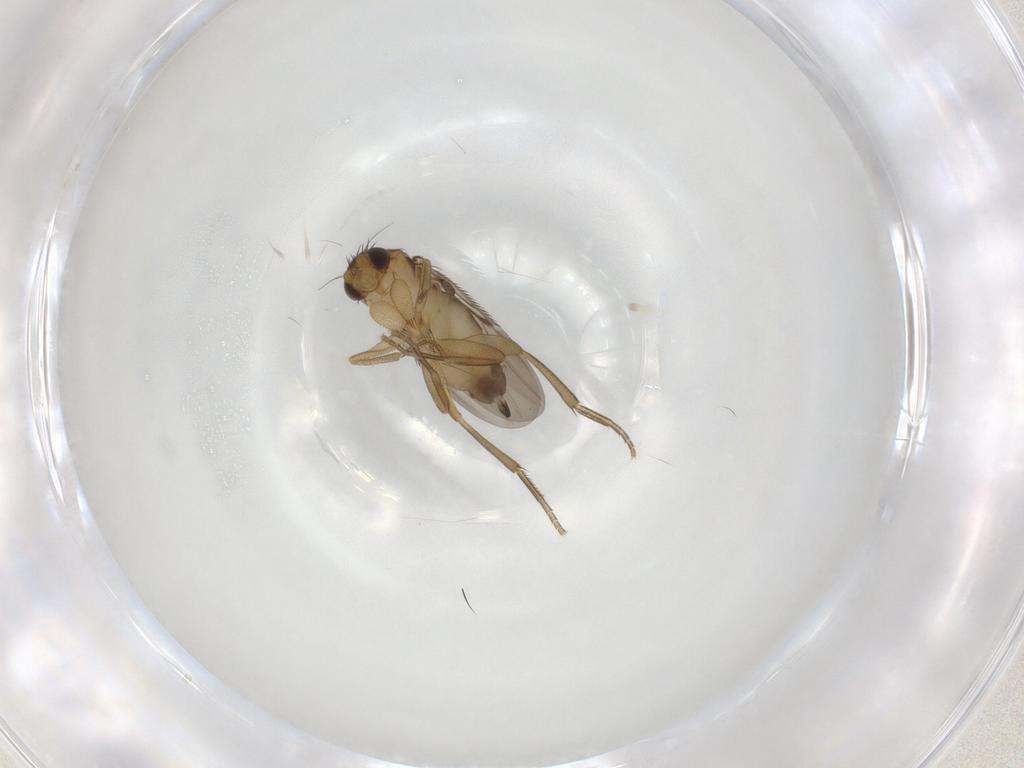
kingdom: Animalia
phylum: Arthropoda
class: Insecta
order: Diptera
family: Phoridae
